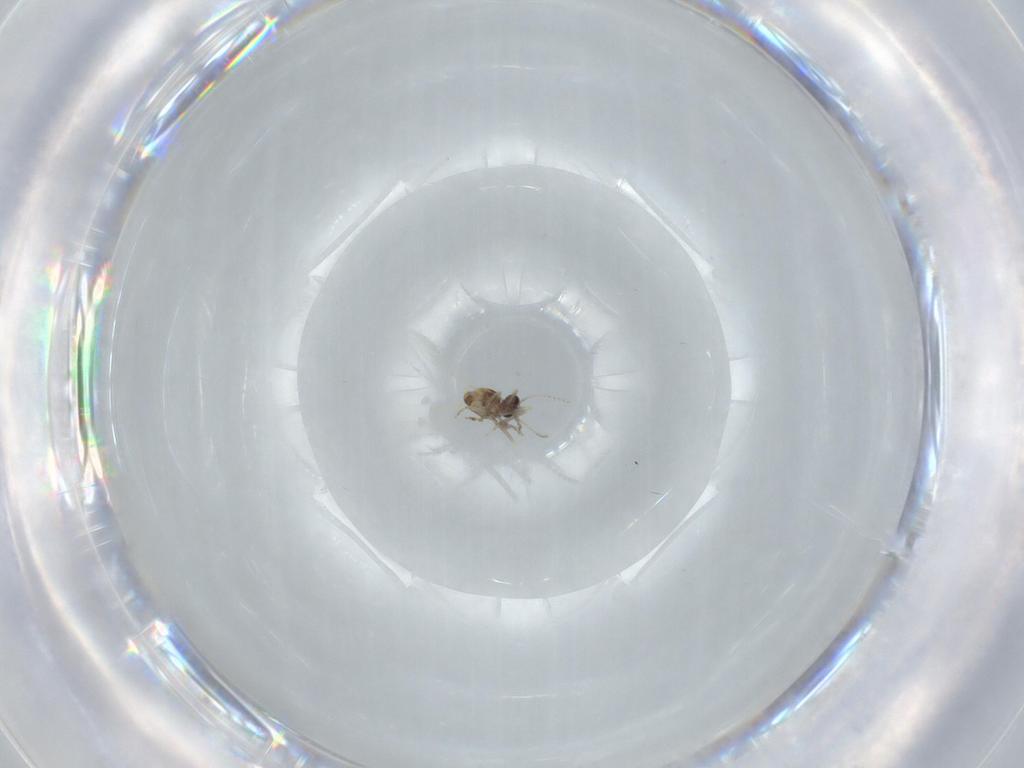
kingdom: Animalia
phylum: Arthropoda
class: Insecta
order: Diptera
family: Ceratopogonidae
